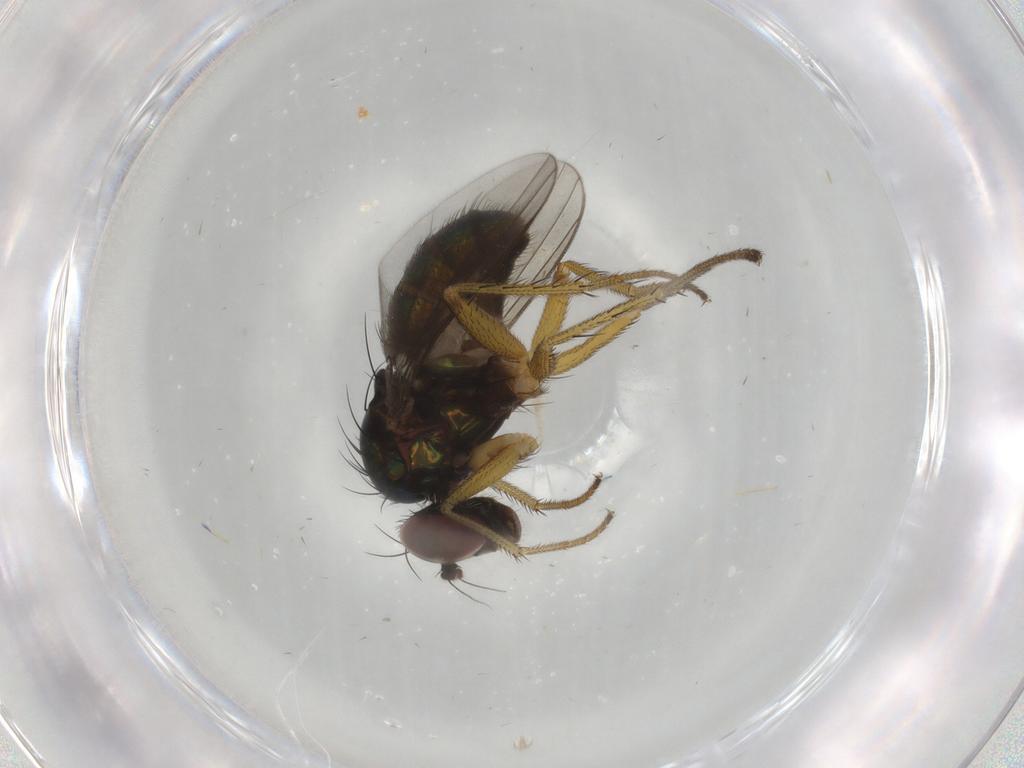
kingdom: Animalia
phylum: Arthropoda
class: Insecta
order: Diptera
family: Dolichopodidae
